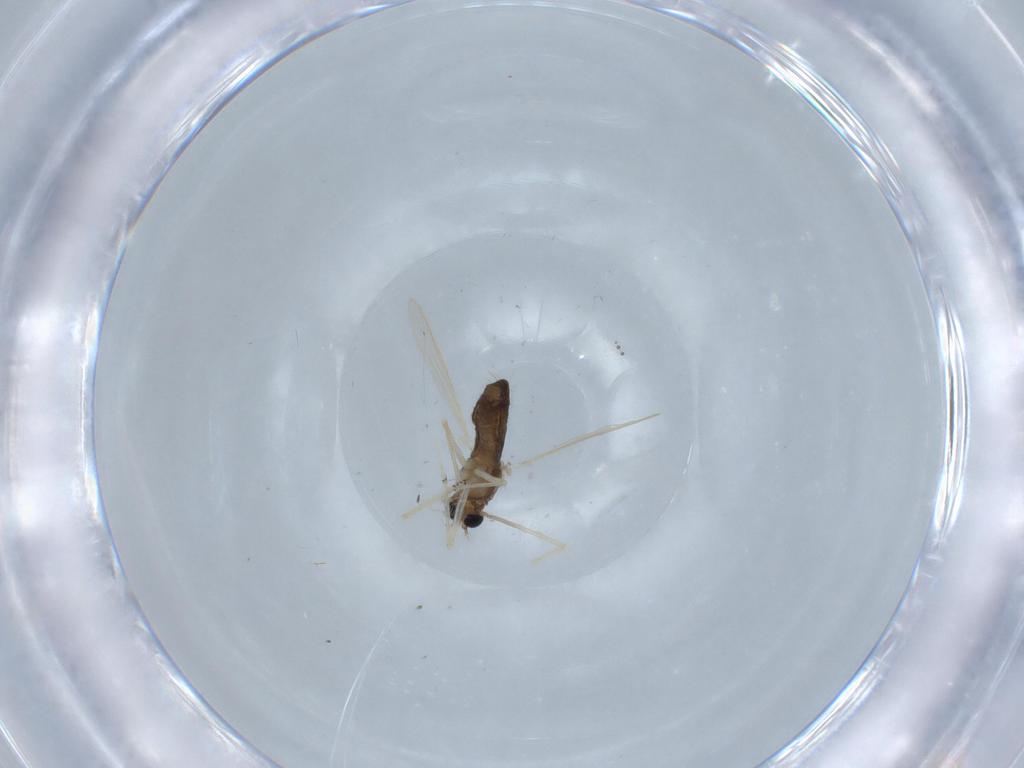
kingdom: Animalia
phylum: Arthropoda
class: Insecta
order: Diptera
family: Chironomidae
